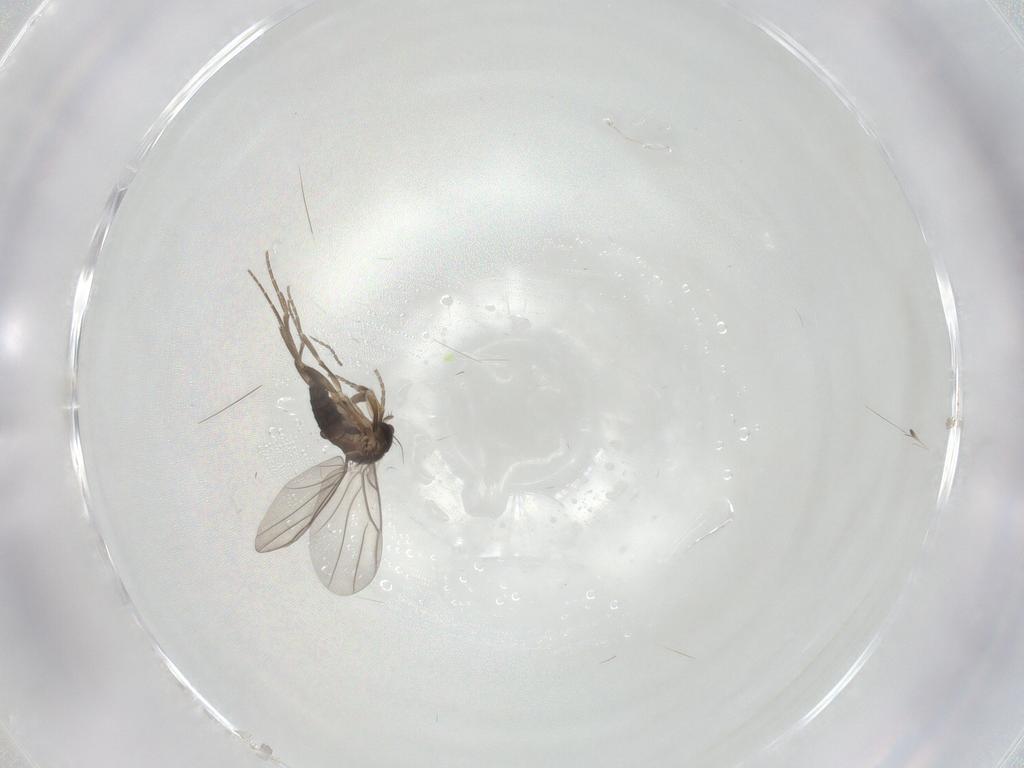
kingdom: Animalia
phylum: Arthropoda
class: Insecta
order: Diptera
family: Phoridae
